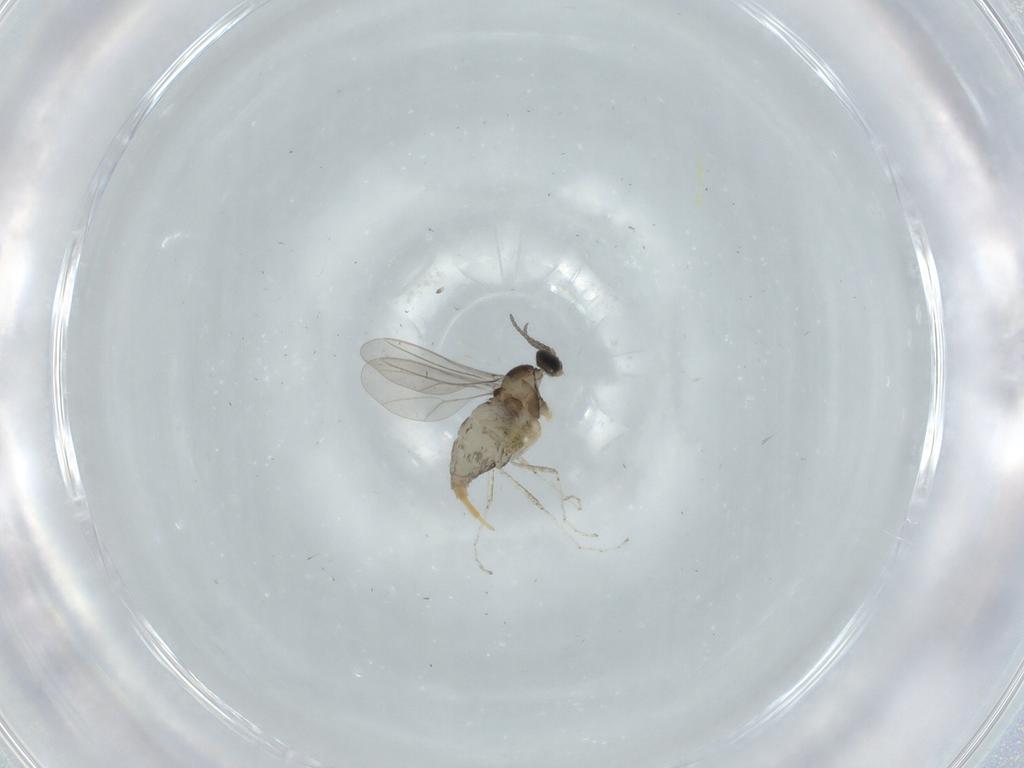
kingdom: Animalia
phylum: Arthropoda
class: Insecta
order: Diptera
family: Cecidomyiidae
